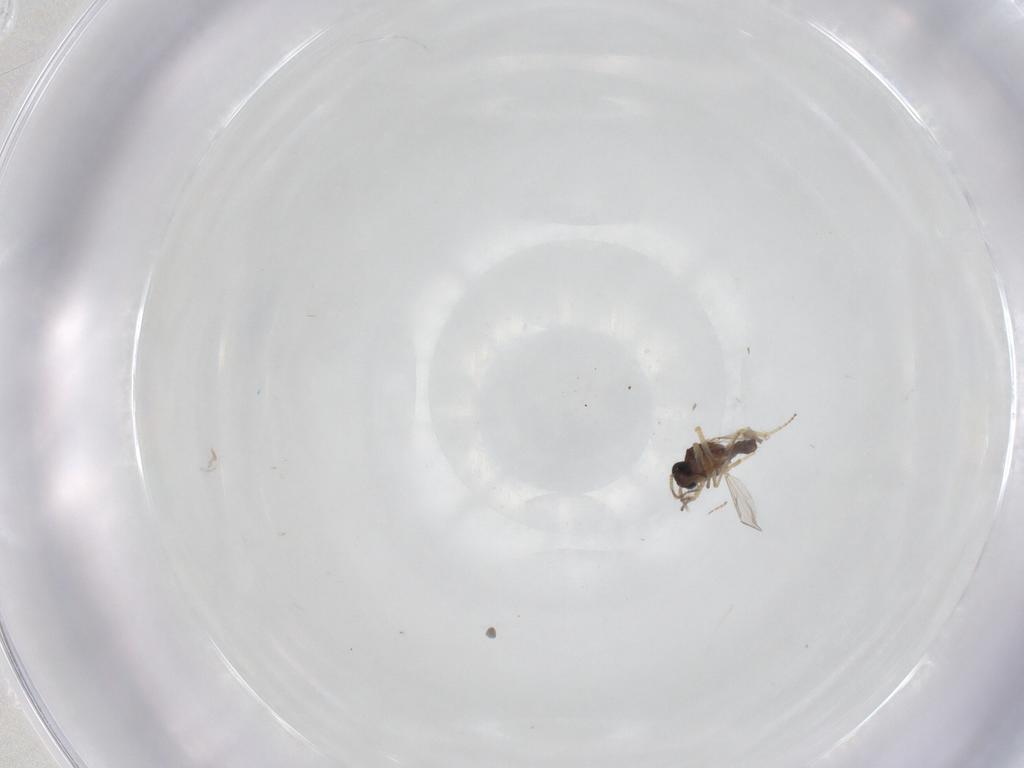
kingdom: Animalia
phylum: Arthropoda
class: Insecta
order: Diptera
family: Ceratopogonidae
